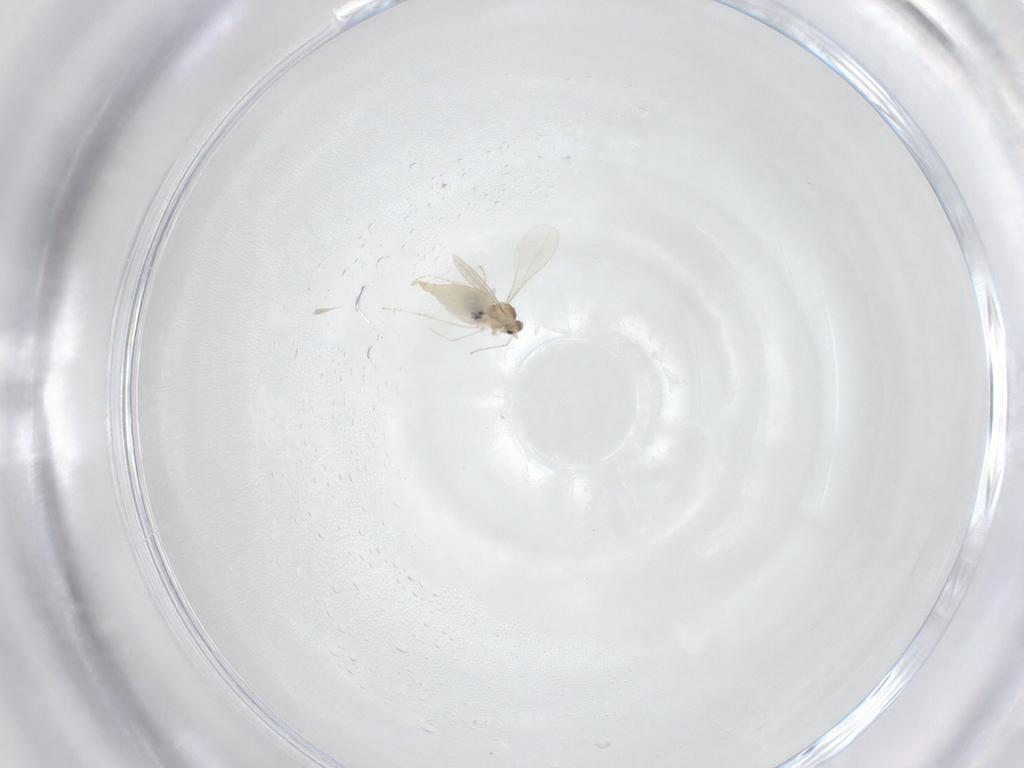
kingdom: Animalia
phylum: Arthropoda
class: Insecta
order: Diptera
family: Cecidomyiidae
